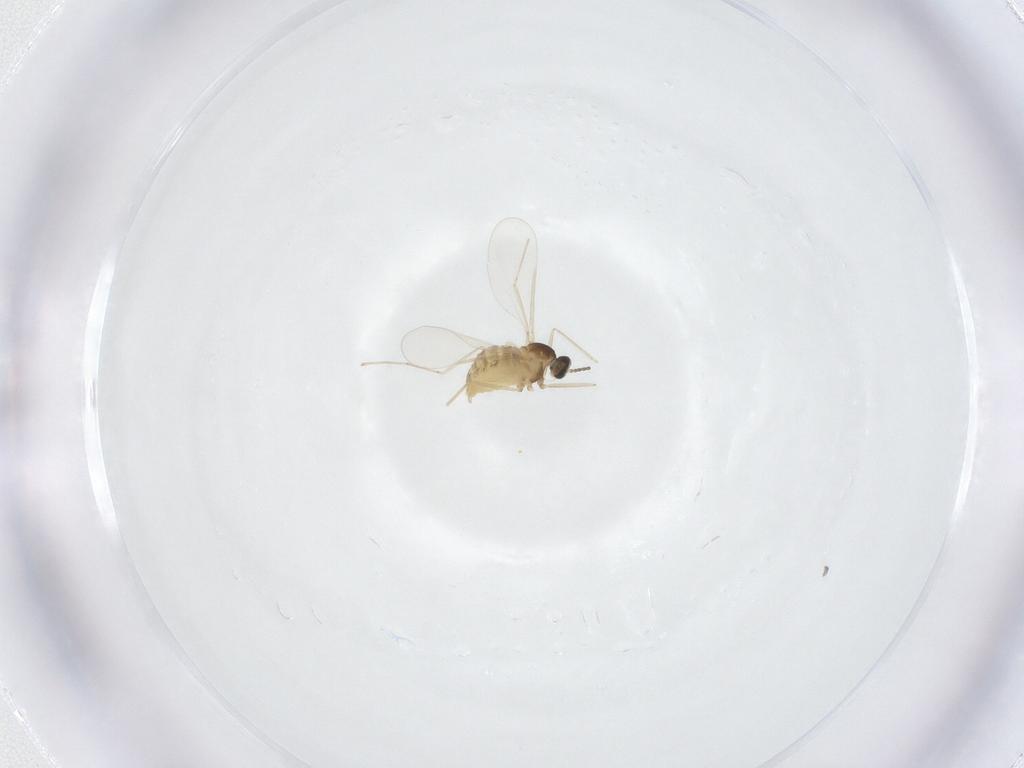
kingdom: Animalia
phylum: Arthropoda
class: Insecta
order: Diptera
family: Cecidomyiidae
